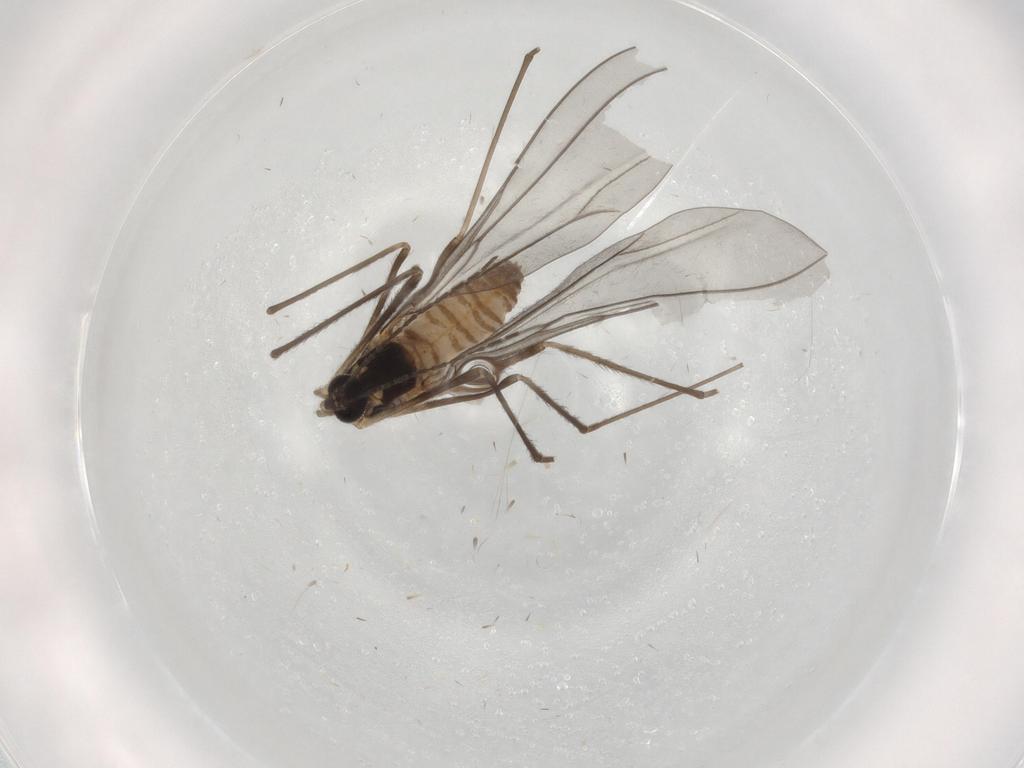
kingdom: Animalia
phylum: Arthropoda
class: Insecta
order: Diptera
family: Cecidomyiidae
